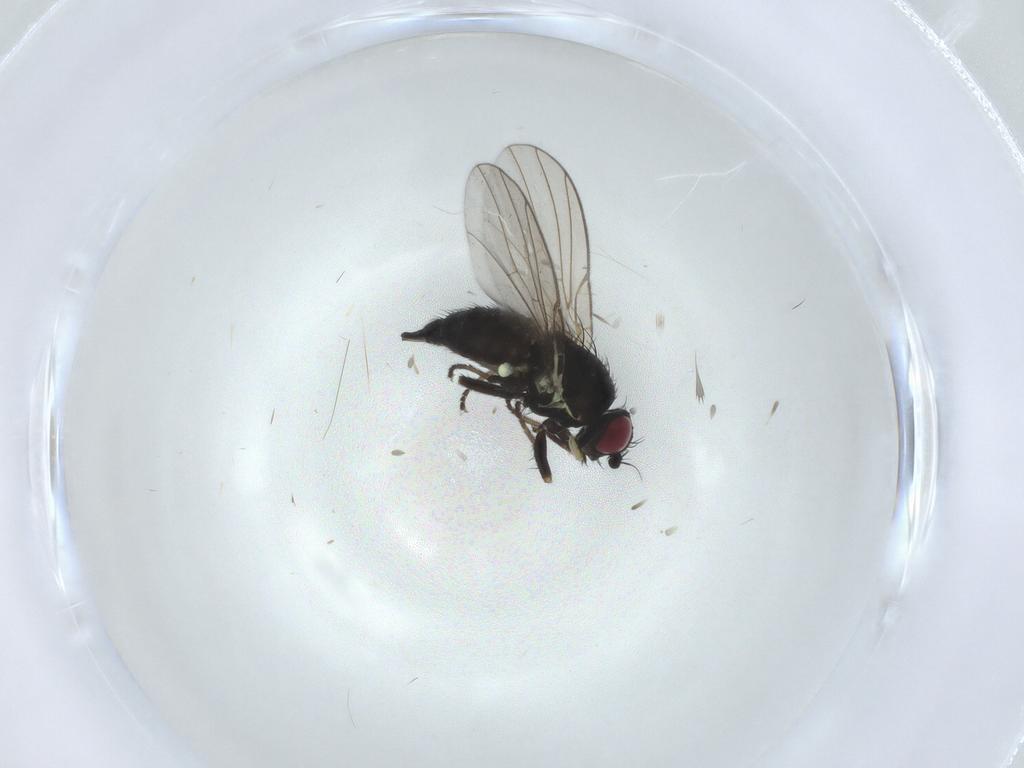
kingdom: Animalia
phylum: Arthropoda
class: Insecta
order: Diptera
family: Agromyzidae
